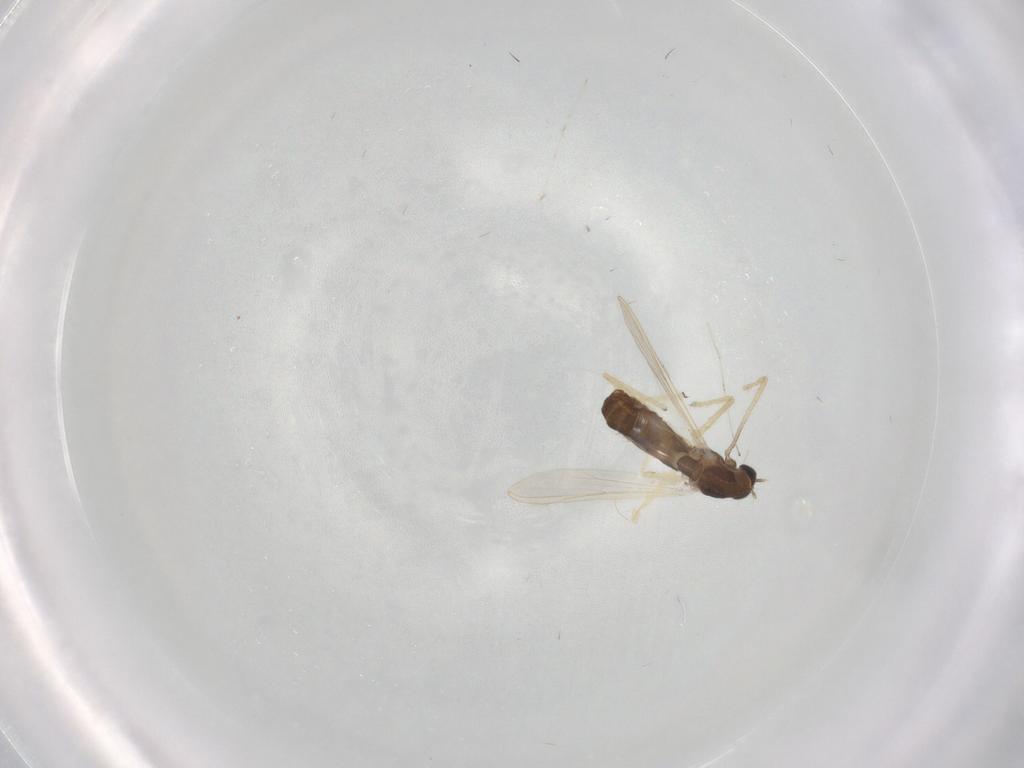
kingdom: Animalia
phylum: Arthropoda
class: Insecta
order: Diptera
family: Chironomidae
